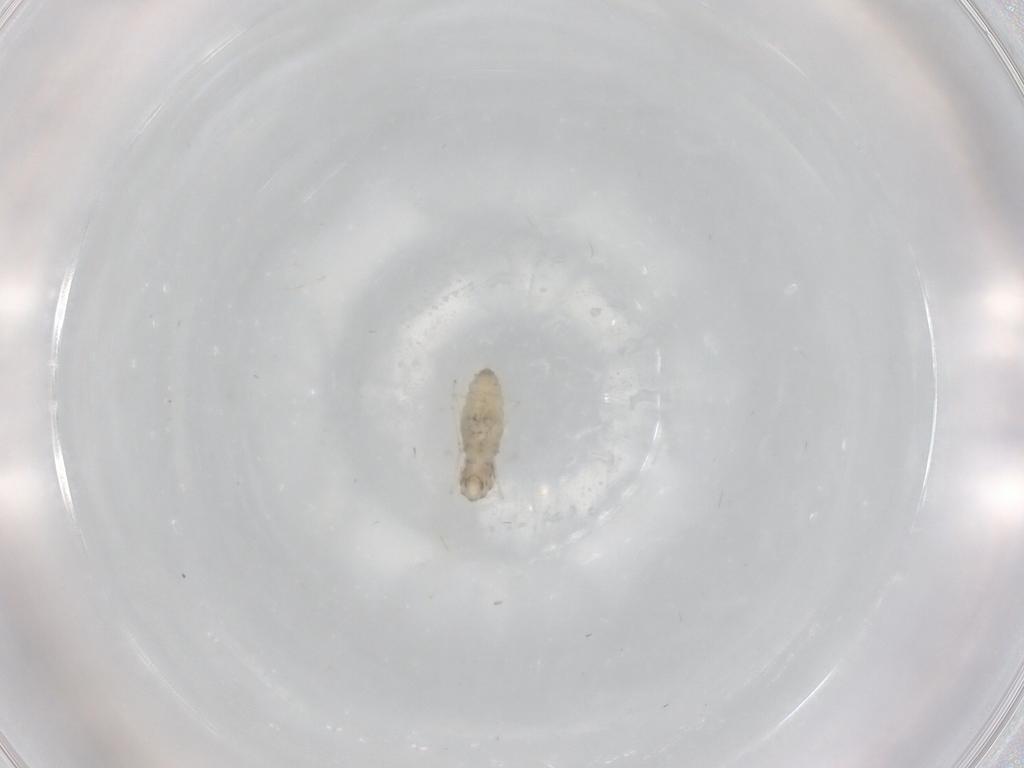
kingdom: Animalia
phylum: Arthropoda
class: Insecta
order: Diptera
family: Cecidomyiidae
